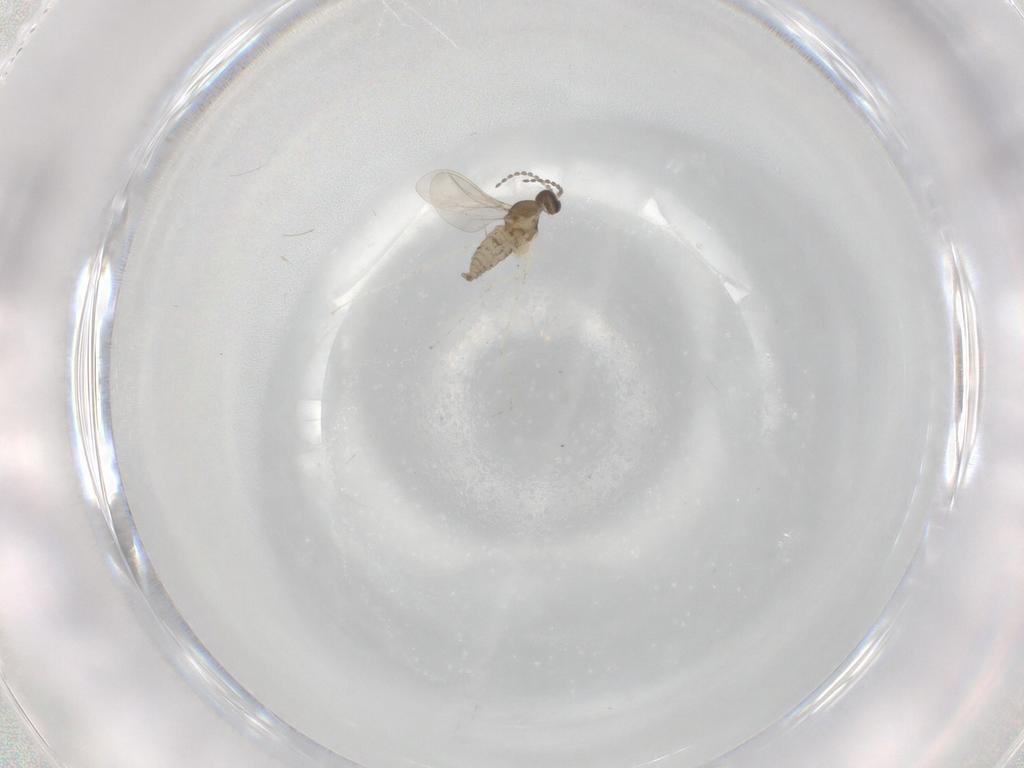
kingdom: Animalia
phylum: Arthropoda
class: Insecta
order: Diptera
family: Cecidomyiidae
